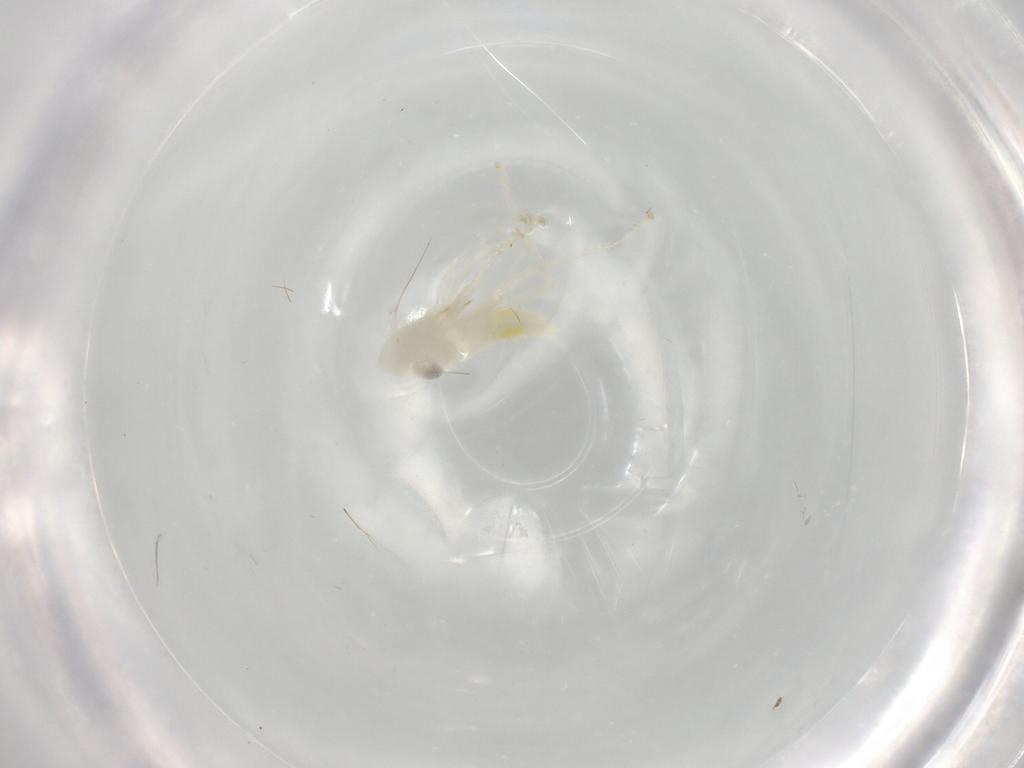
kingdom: Animalia
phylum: Arthropoda
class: Insecta
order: Hemiptera
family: Cicadellidae
